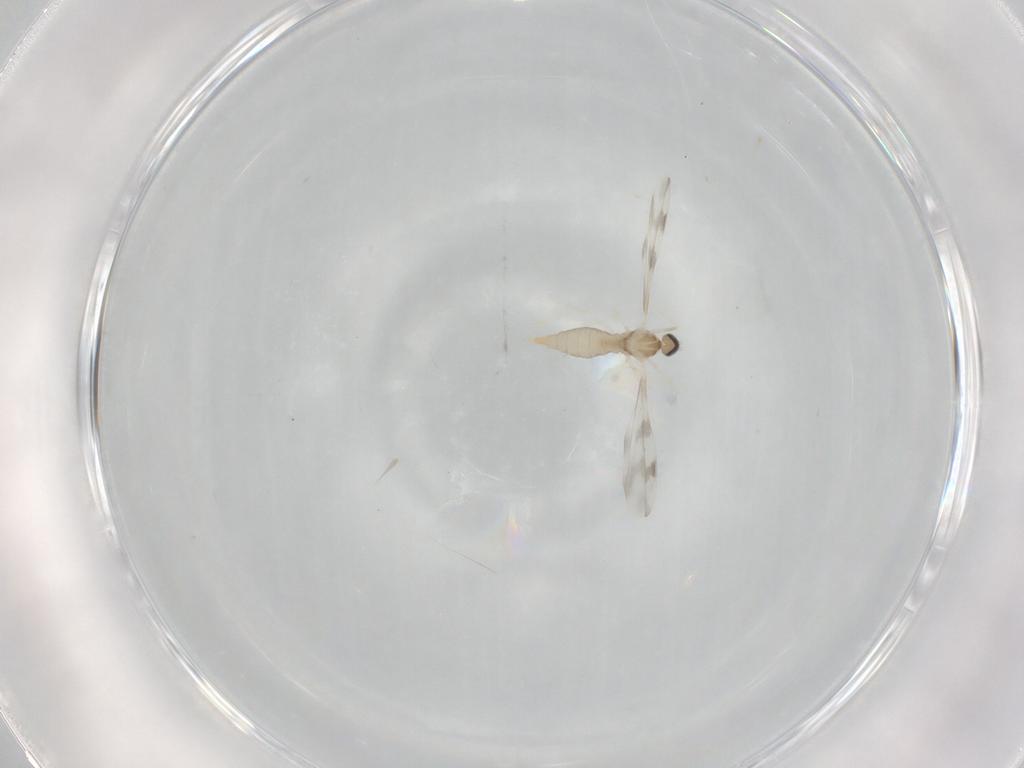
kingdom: Animalia
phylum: Arthropoda
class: Insecta
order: Diptera
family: Cecidomyiidae
